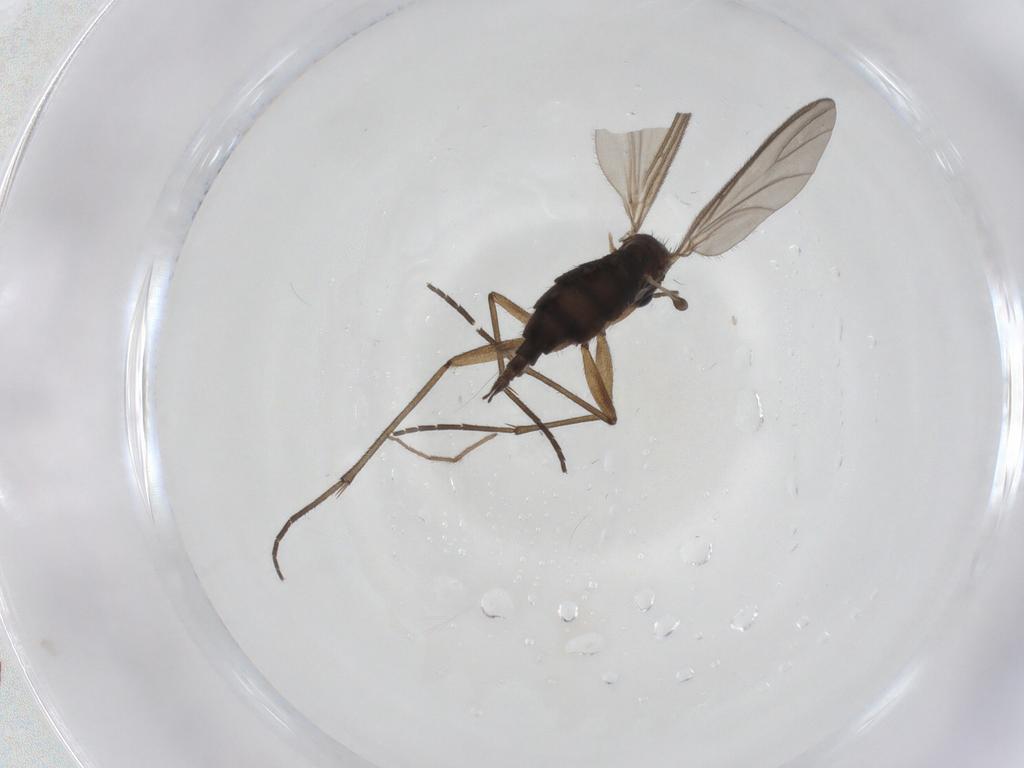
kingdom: Animalia
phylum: Arthropoda
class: Insecta
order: Diptera
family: Sciaridae
